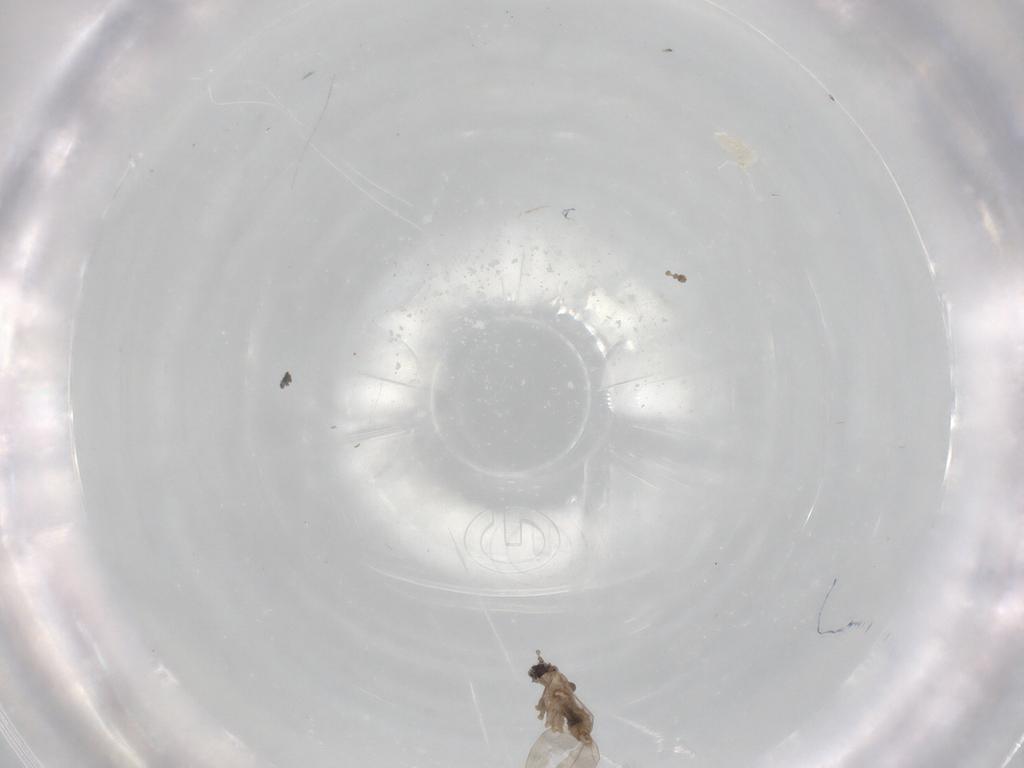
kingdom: Animalia
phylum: Arthropoda
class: Insecta
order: Diptera
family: Cecidomyiidae
